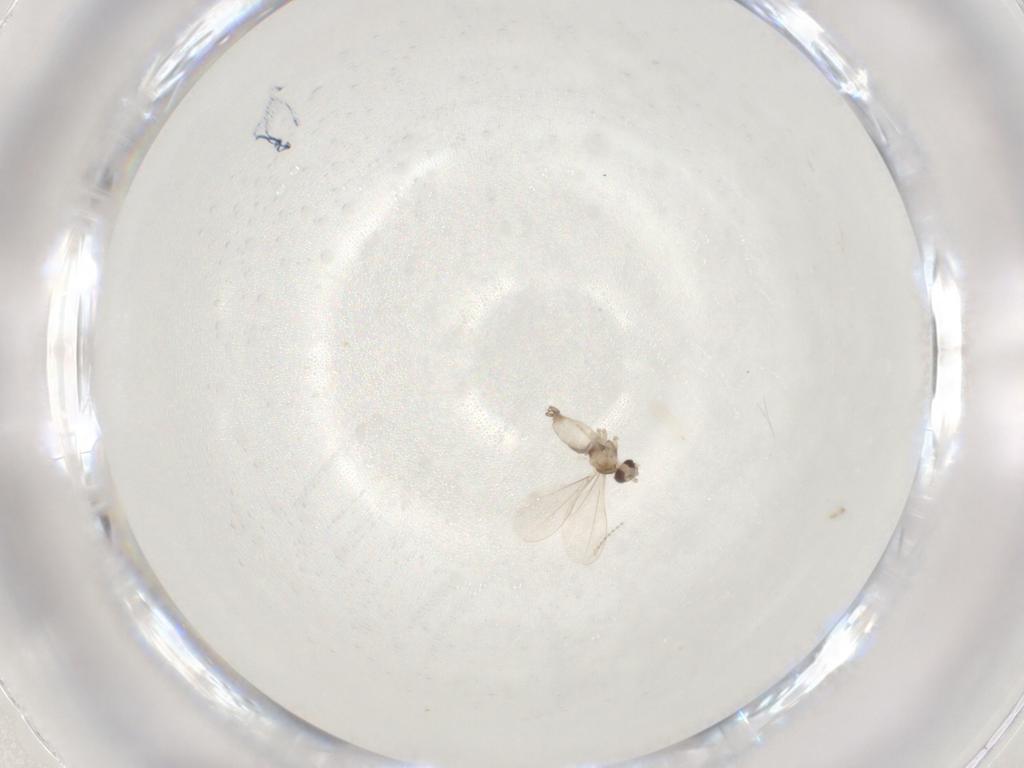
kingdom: Animalia
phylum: Arthropoda
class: Insecta
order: Diptera
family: Cecidomyiidae
